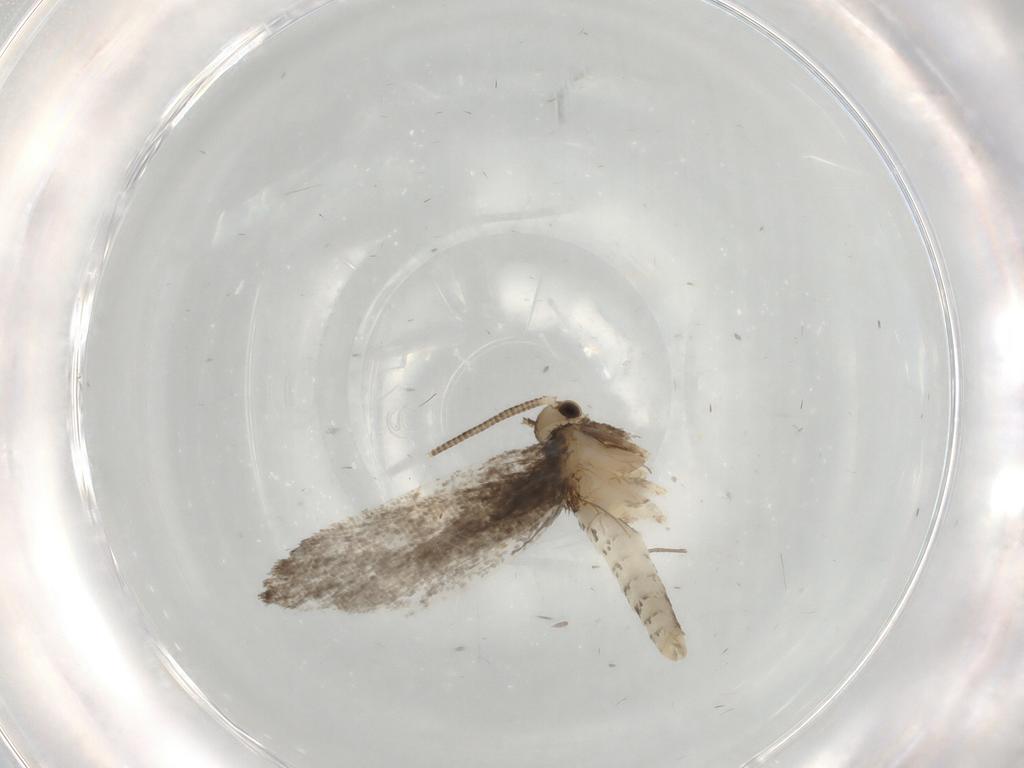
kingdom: Animalia
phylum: Arthropoda
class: Insecta
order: Lepidoptera
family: Nymphalidae
